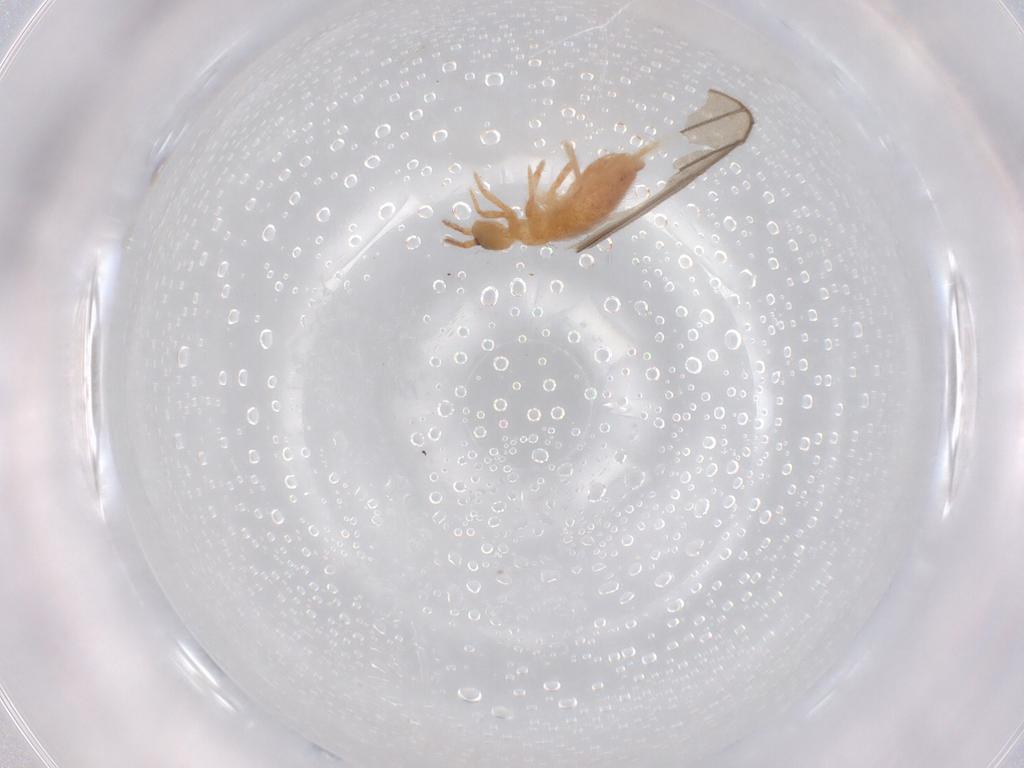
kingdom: Animalia
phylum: Arthropoda
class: Collembola
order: Entomobryomorpha
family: Entomobryidae
